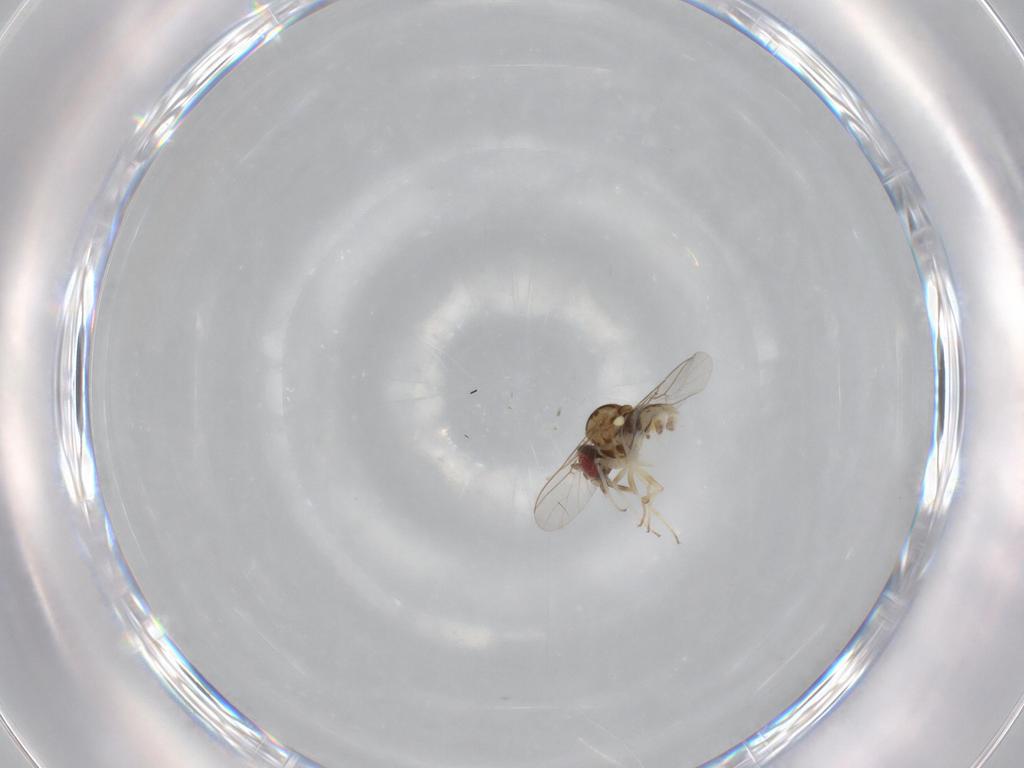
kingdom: Animalia
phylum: Arthropoda
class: Insecta
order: Diptera
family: Bombyliidae
